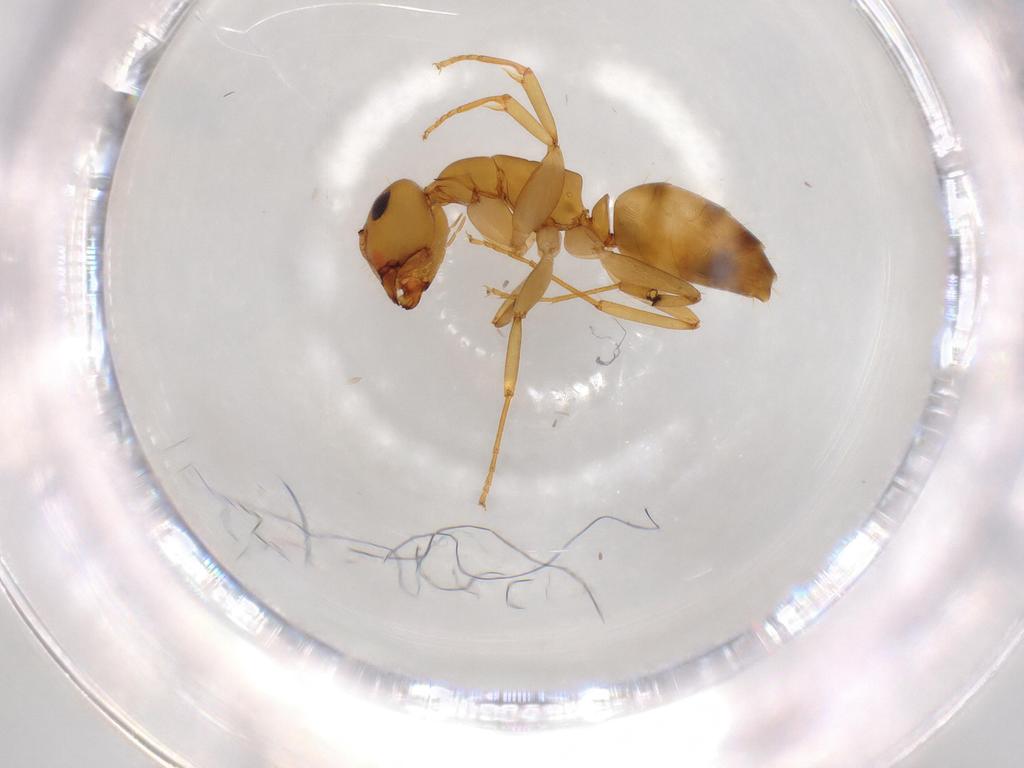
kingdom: Animalia
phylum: Arthropoda
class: Insecta
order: Hymenoptera
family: Formicidae
